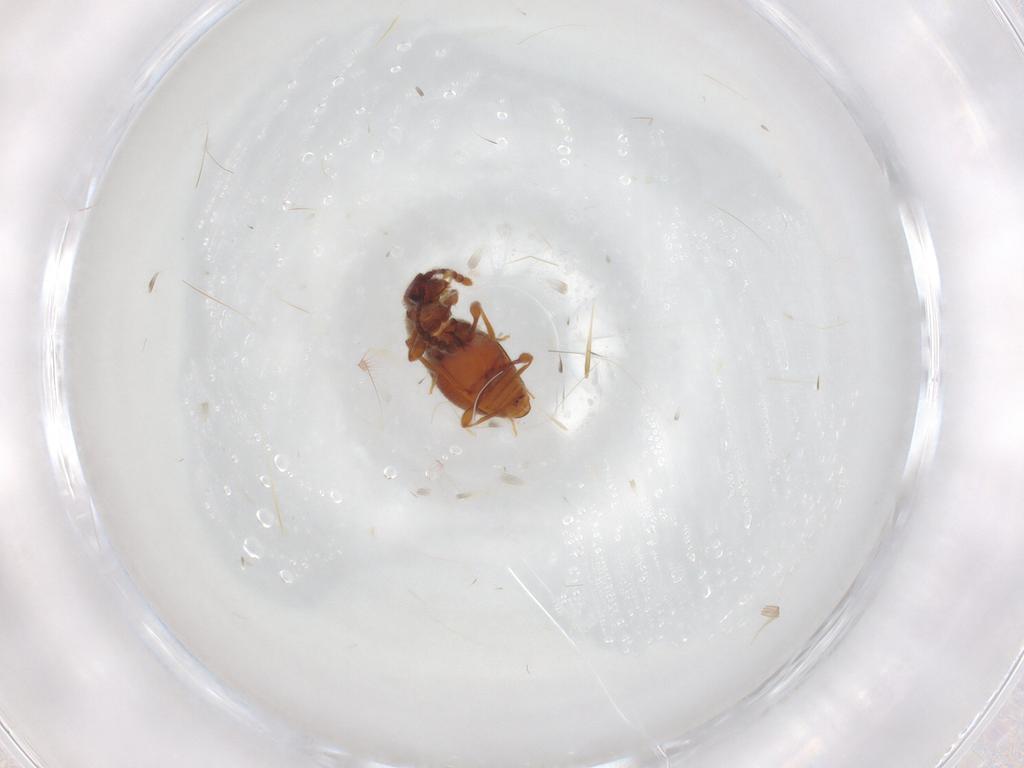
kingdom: Animalia
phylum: Arthropoda
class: Insecta
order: Coleoptera
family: Staphylinidae
